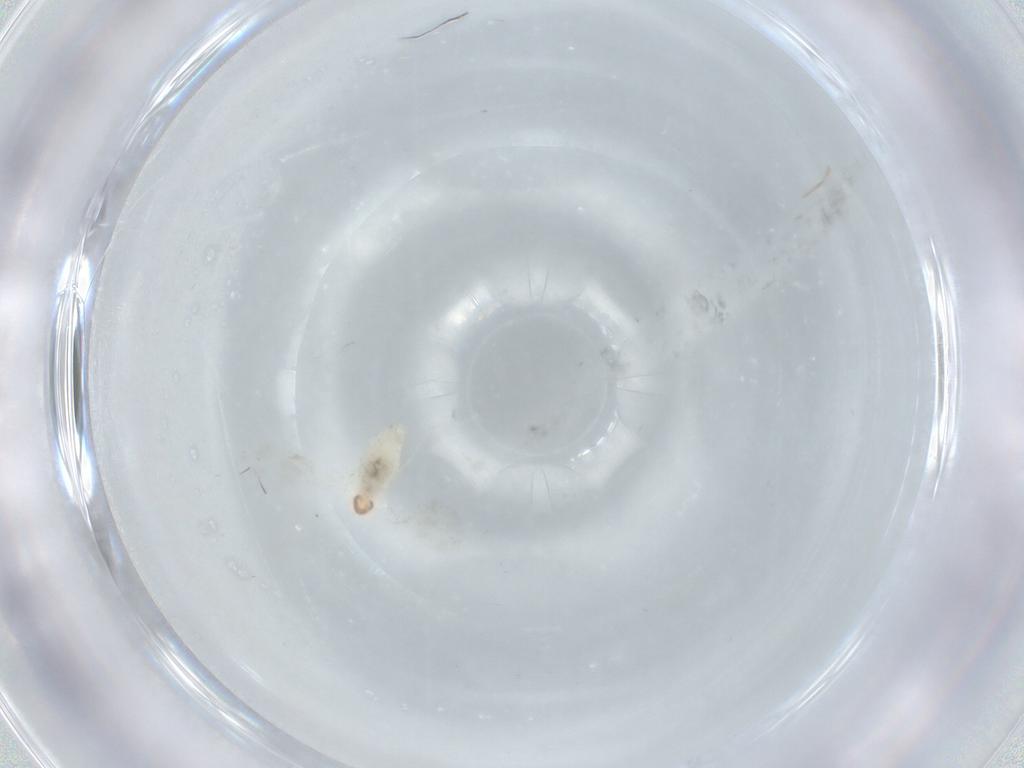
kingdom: Animalia
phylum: Arthropoda
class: Insecta
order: Diptera
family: Cecidomyiidae
